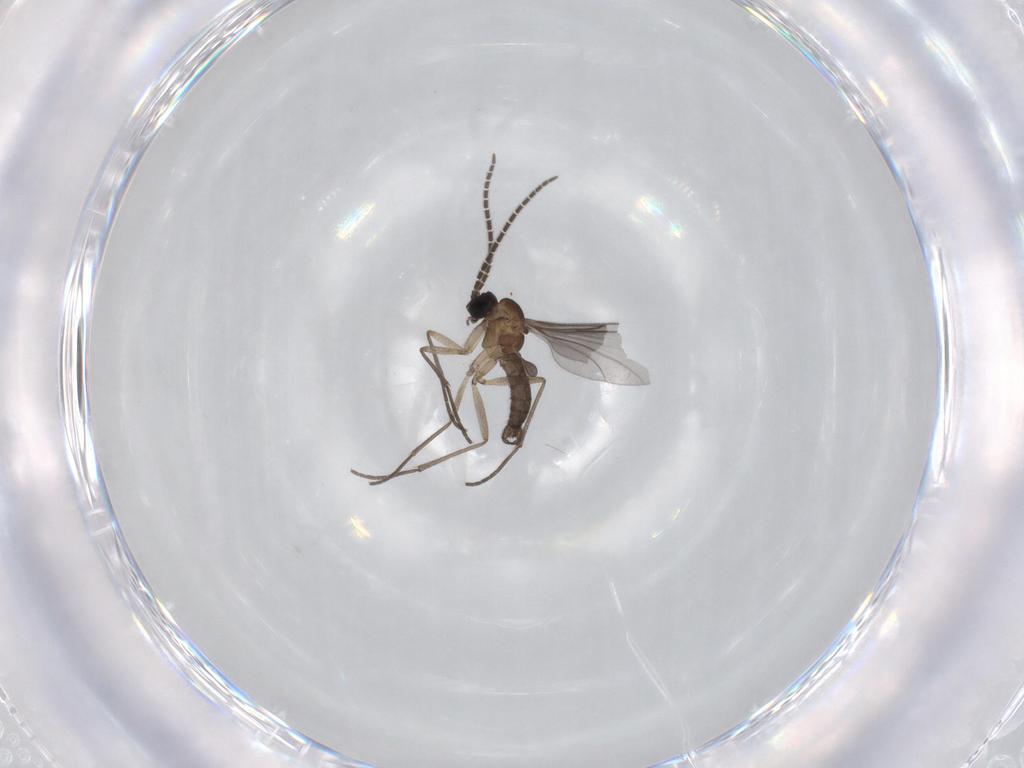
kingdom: Animalia
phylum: Arthropoda
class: Insecta
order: Diptera
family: Sciaridae
